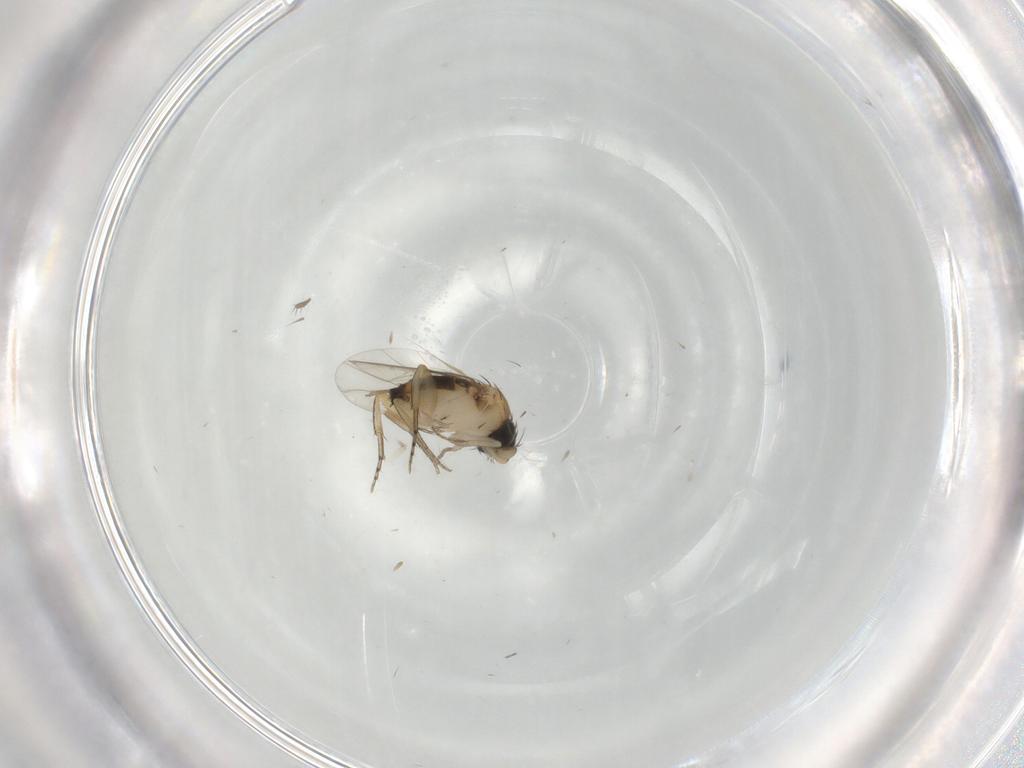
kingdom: Animalia
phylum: Arthropoda
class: Insecta
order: Diptera
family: Phoridae
